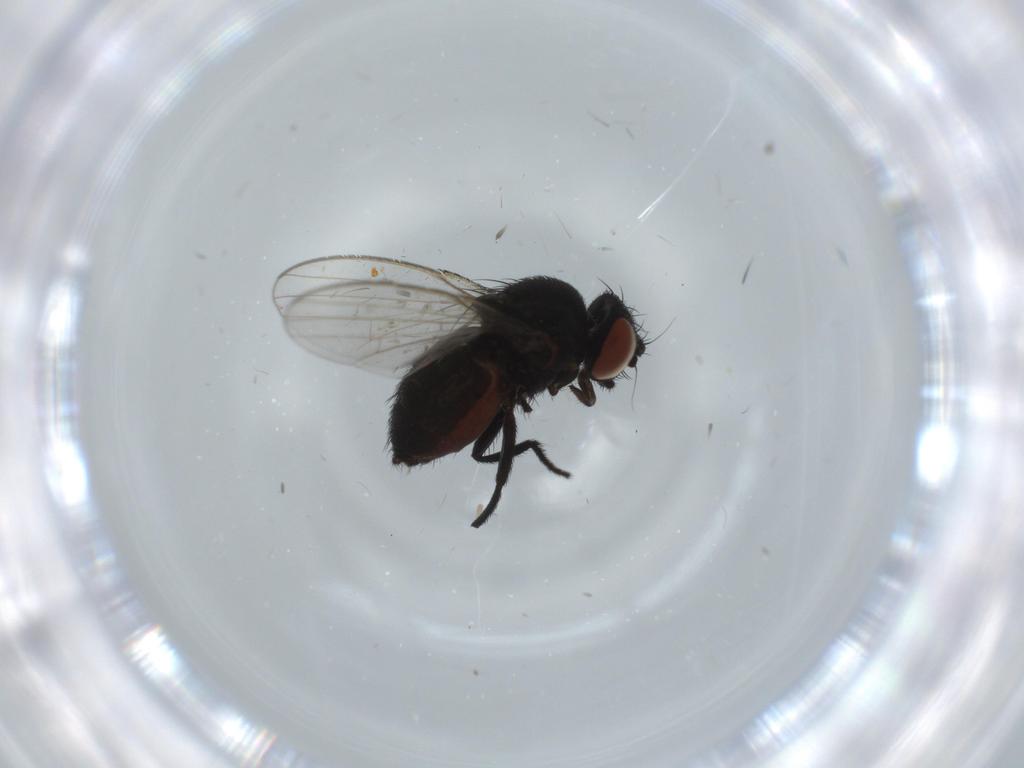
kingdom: Animalia
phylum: Arthropoda
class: Insecta
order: Diptera
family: Milichiidae
